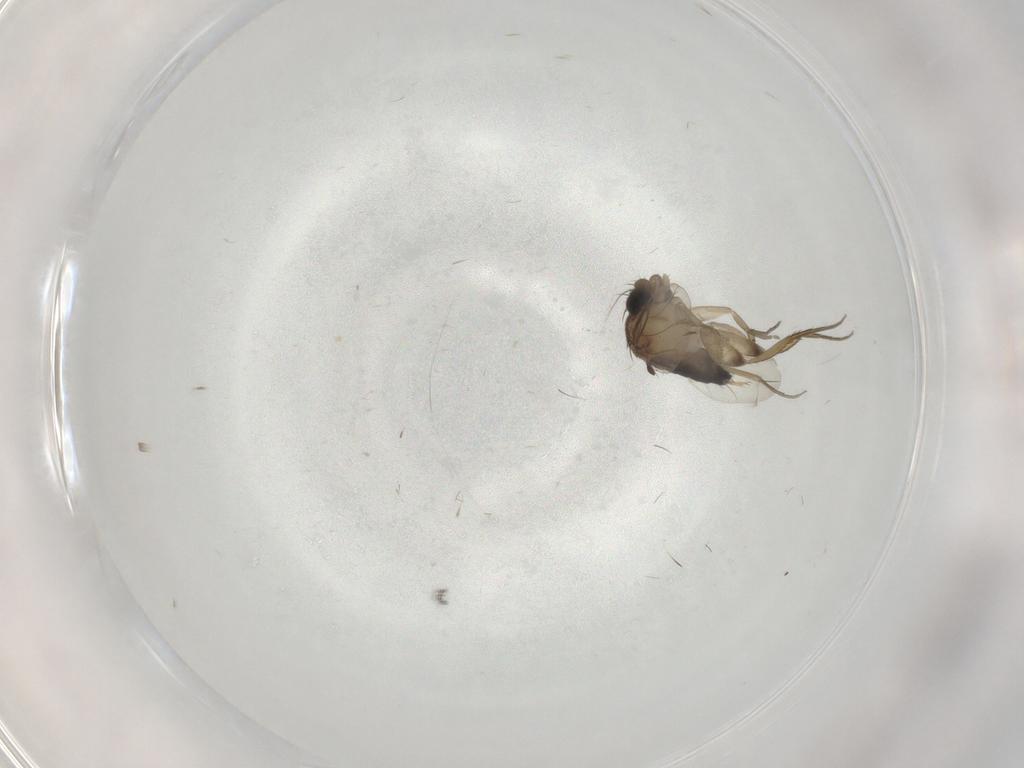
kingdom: Animalia
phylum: Arthropoda
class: Insecta
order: Diptera
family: Phoridae
